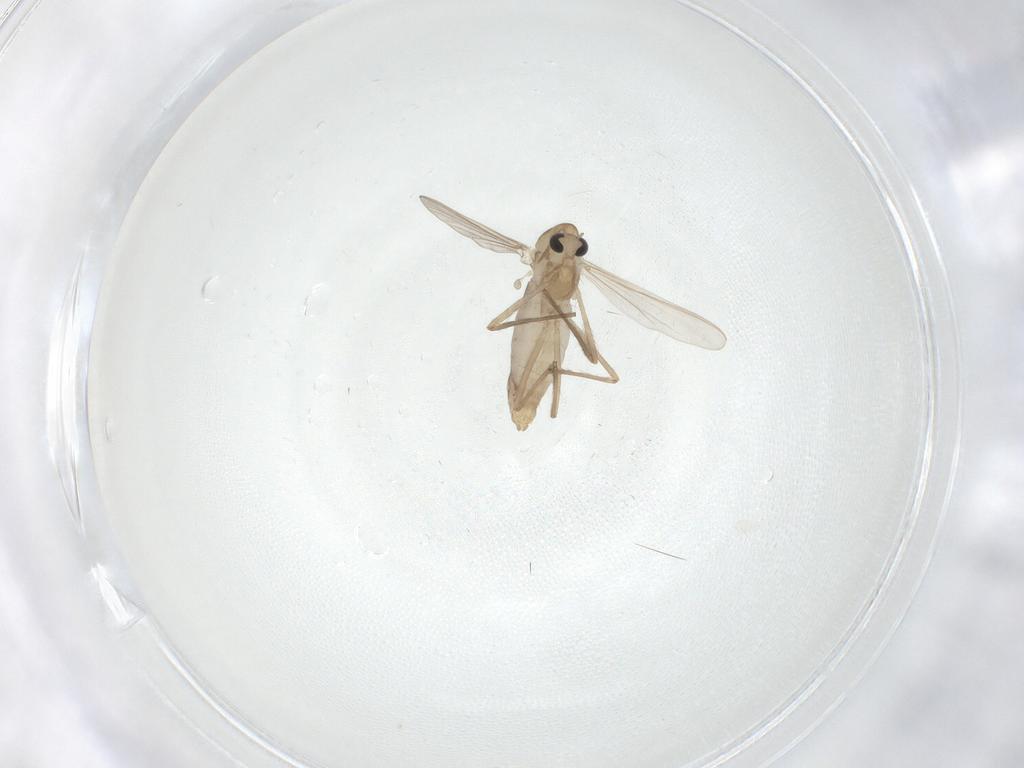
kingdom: Animalia
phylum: Arthropoda
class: Insecta
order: Diptera
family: Chironomidae
